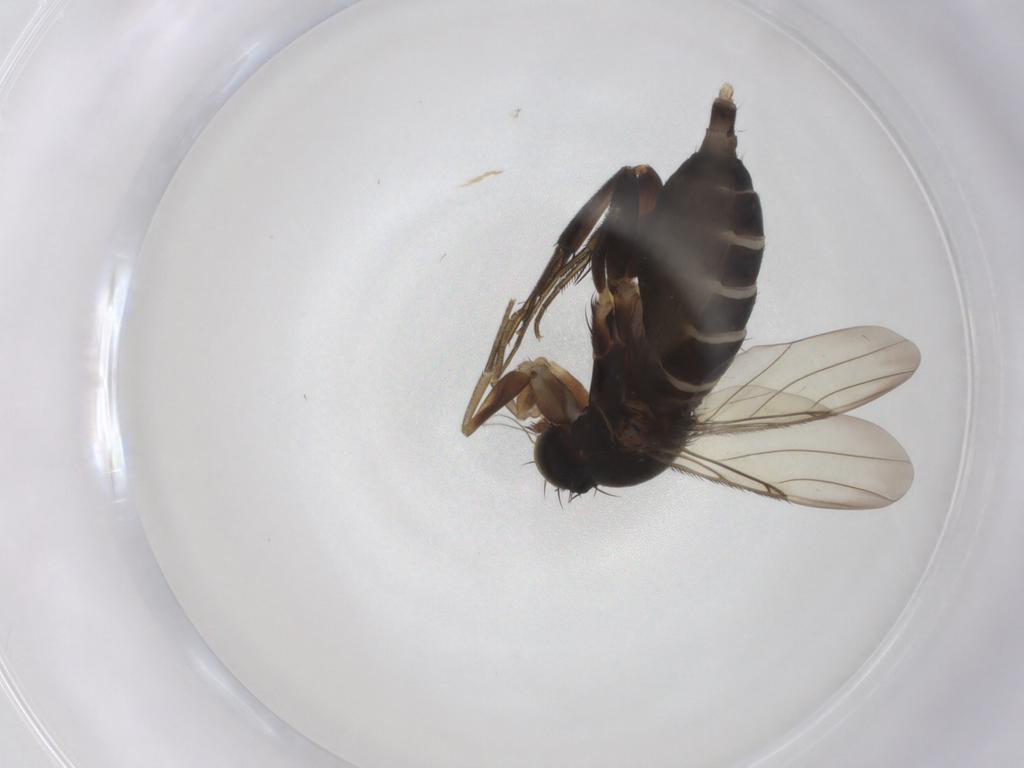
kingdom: Animalia
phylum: Arthropoda
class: Insecta
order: Diptera
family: Phoridae
